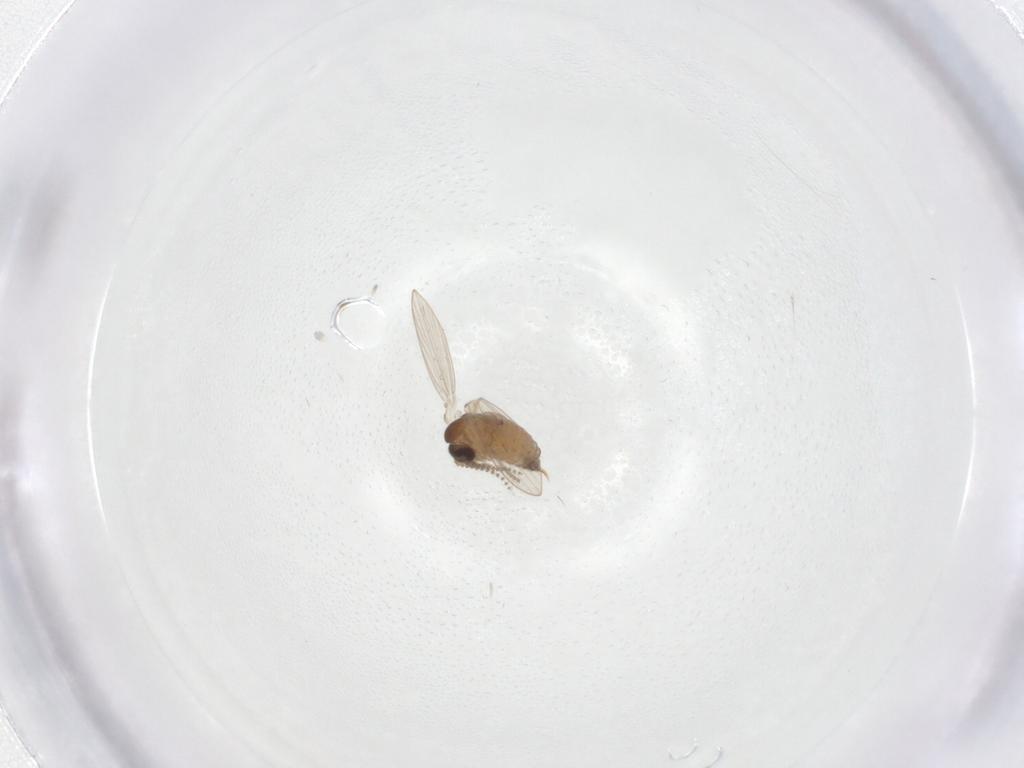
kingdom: Animalia
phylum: Arthropoda
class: Insecta
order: Diptera
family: Psychodidae
